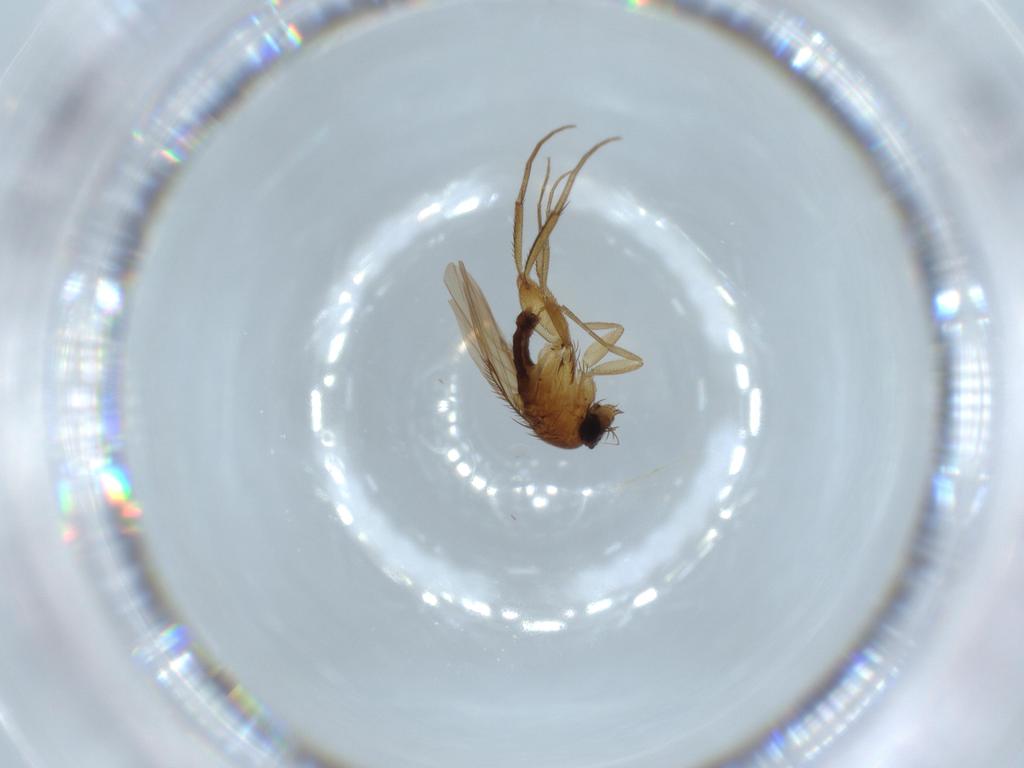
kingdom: Animalia
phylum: Arthropoda
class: Insecta
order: Diptera
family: Phoridae
